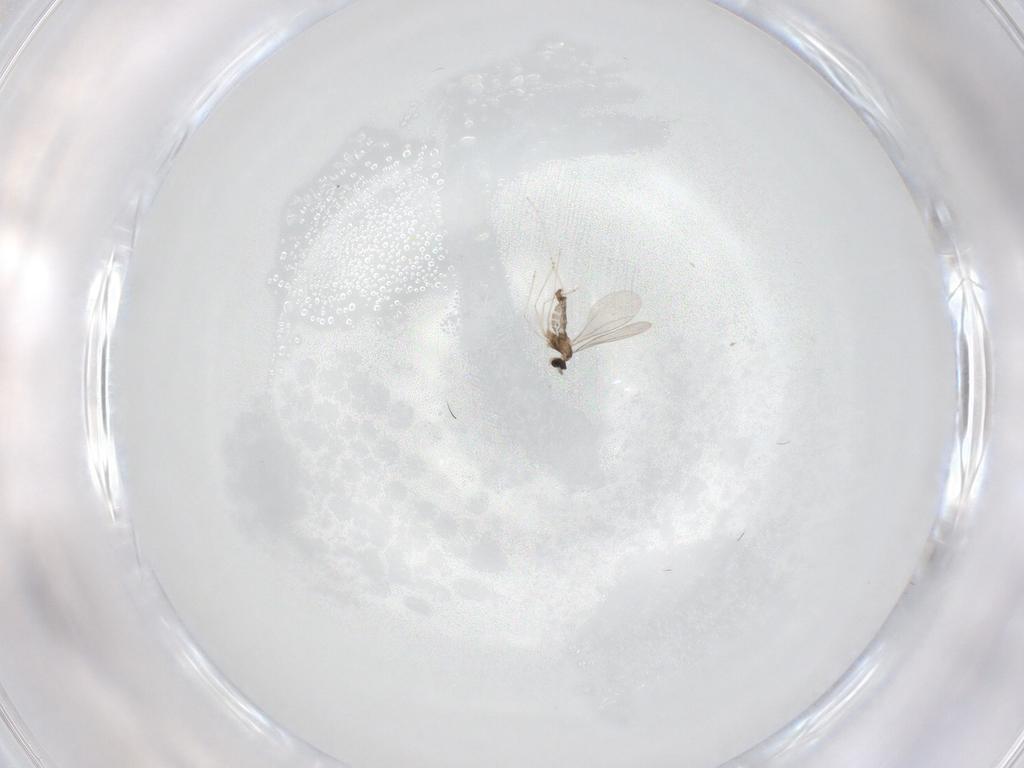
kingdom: Animalia
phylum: Arthropoda
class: Insecta
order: Diptera
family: Cecidomyiidae
